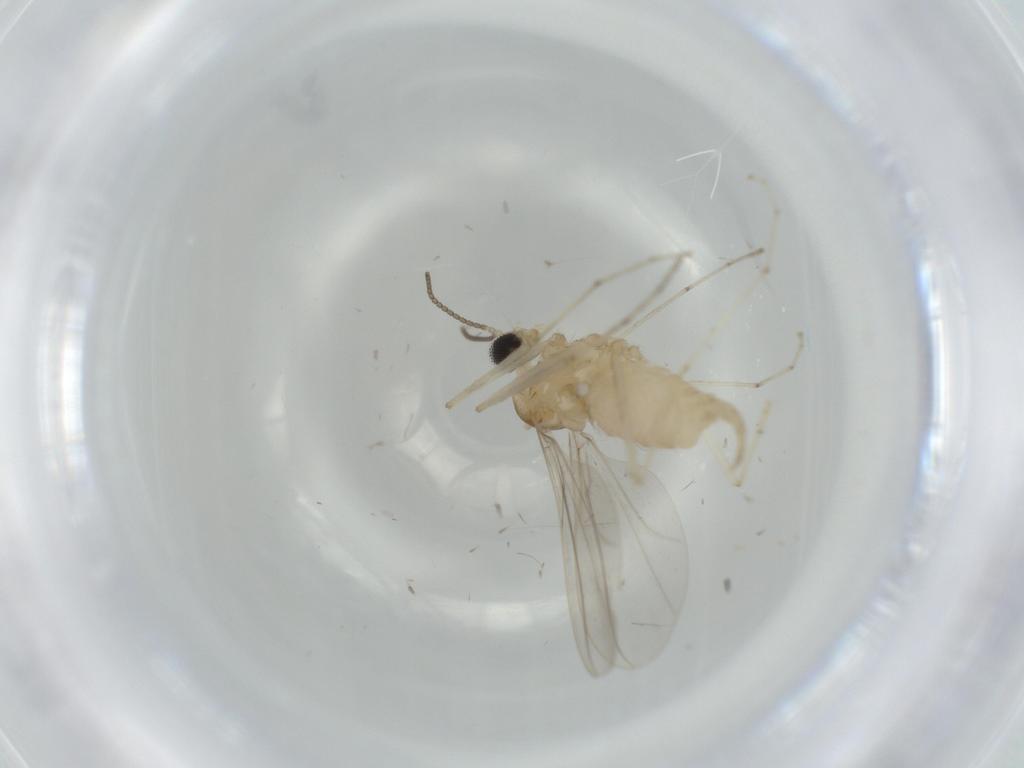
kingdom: Animalia
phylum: Arthropoda
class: Insecta
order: Diptera
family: Cecidomyiidae
